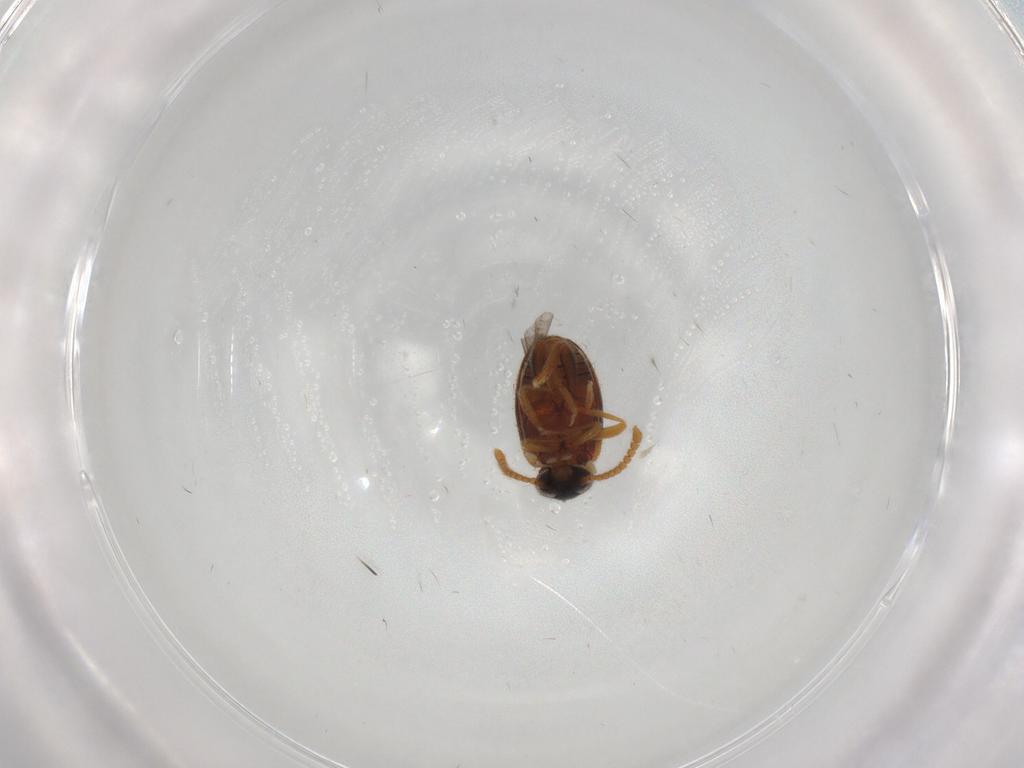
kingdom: Animalia
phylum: Arthropoda
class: Insecta
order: Coleoptera
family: Aderidae
